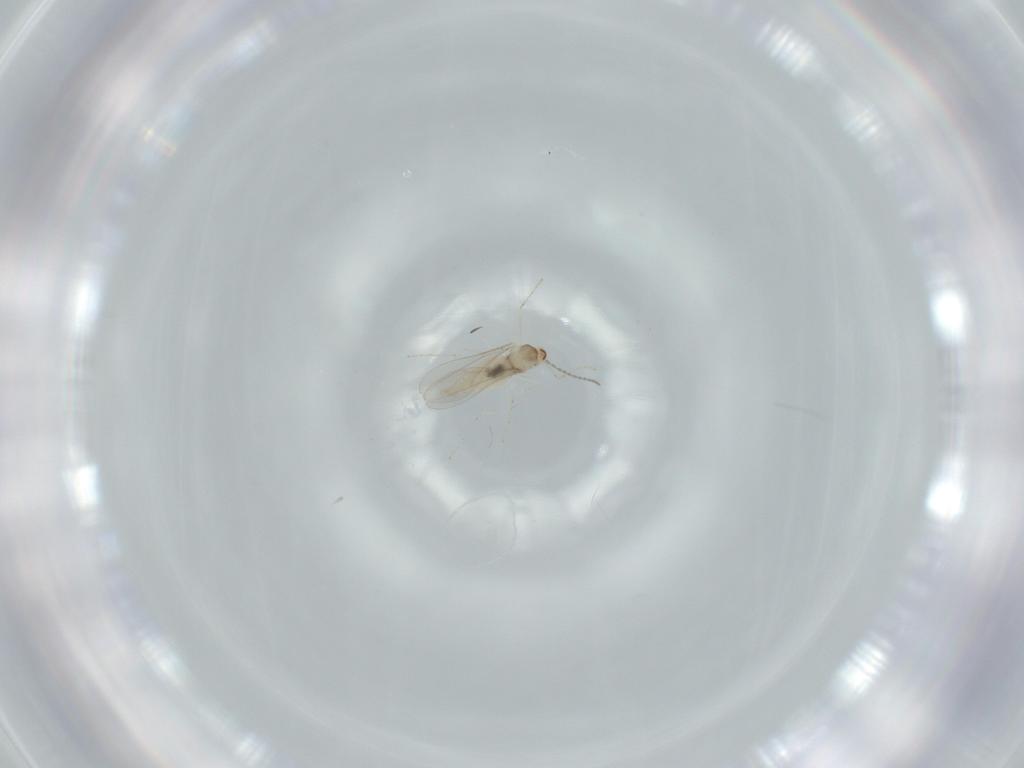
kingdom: Animalia
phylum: Arthropoda
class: Insecta
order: Diptera
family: Cecidomyiidae
